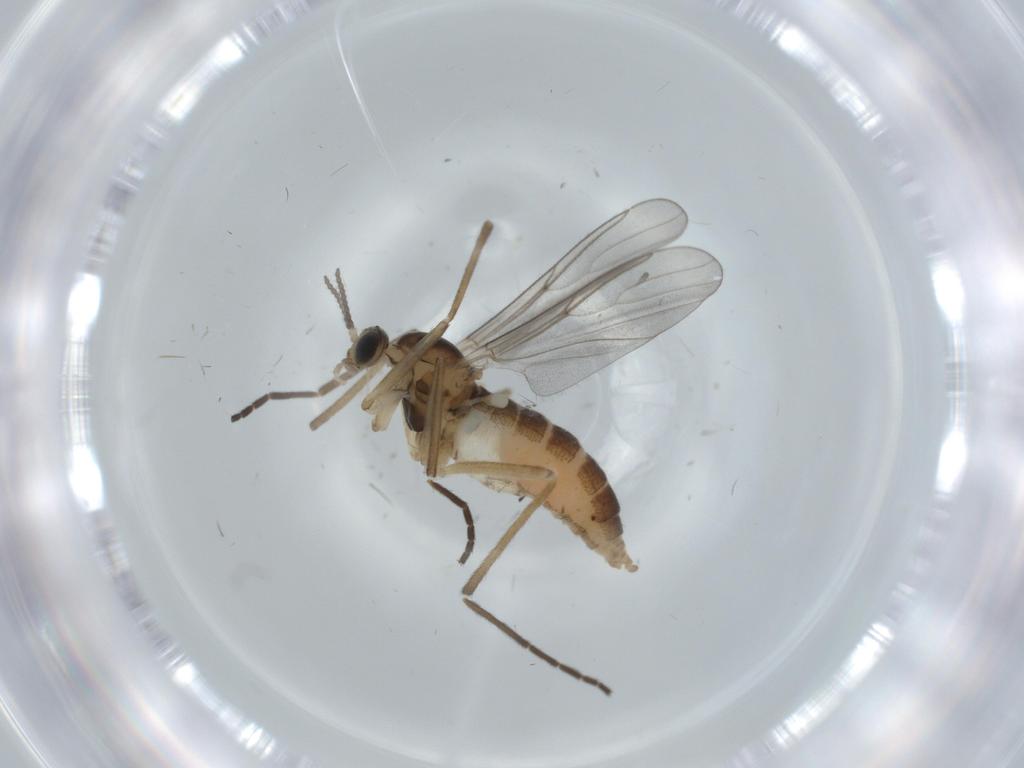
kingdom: Animalia
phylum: Arthropoda
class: Insecta
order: Diptera
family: Cecidomyiidae
